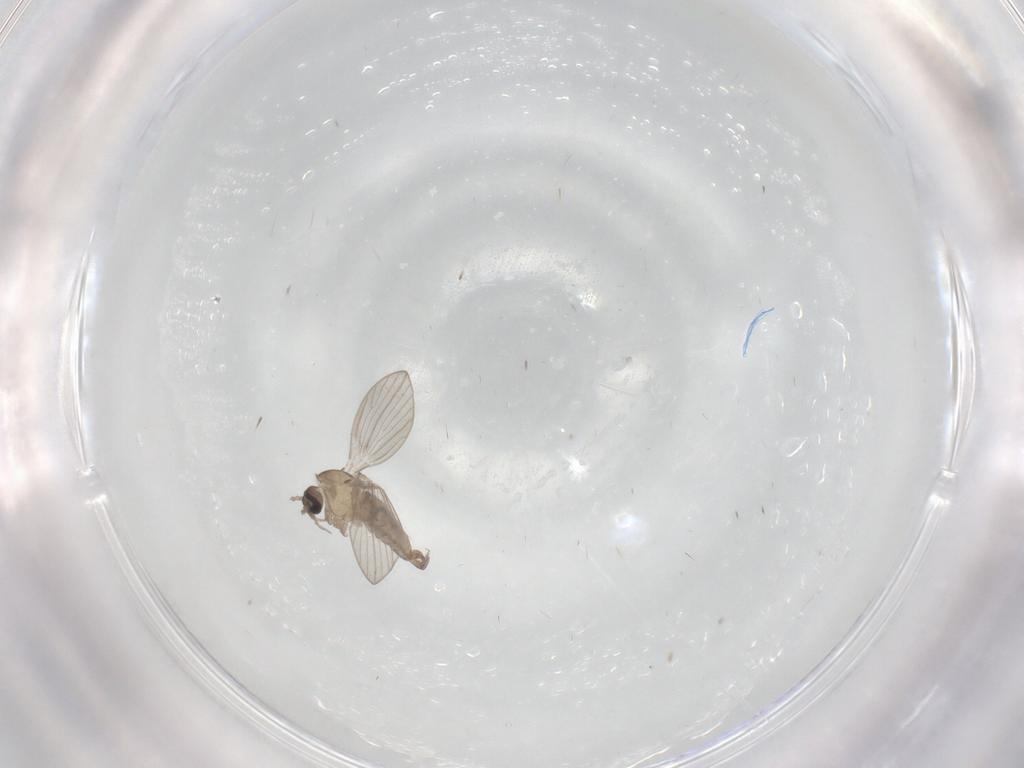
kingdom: Animalia
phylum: Arthropoda
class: Insecta
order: Diptera
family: Psychodidae
